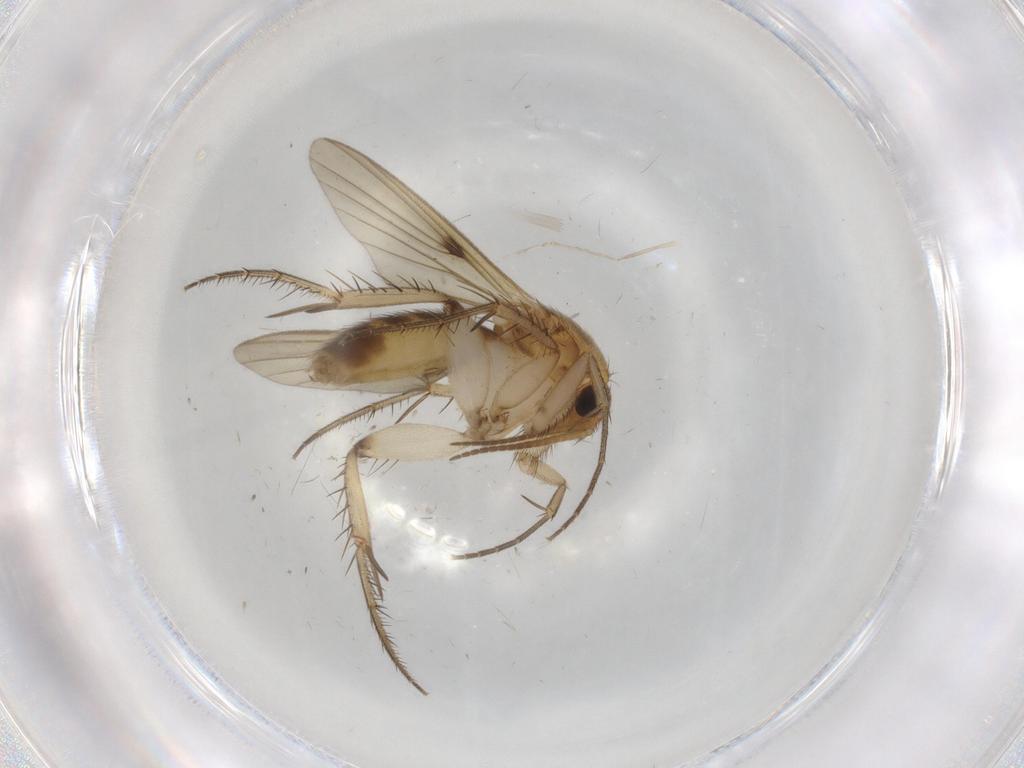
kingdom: Animalia
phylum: Arthropoda
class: Insecta
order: Diptera
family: Mycetophilidae
